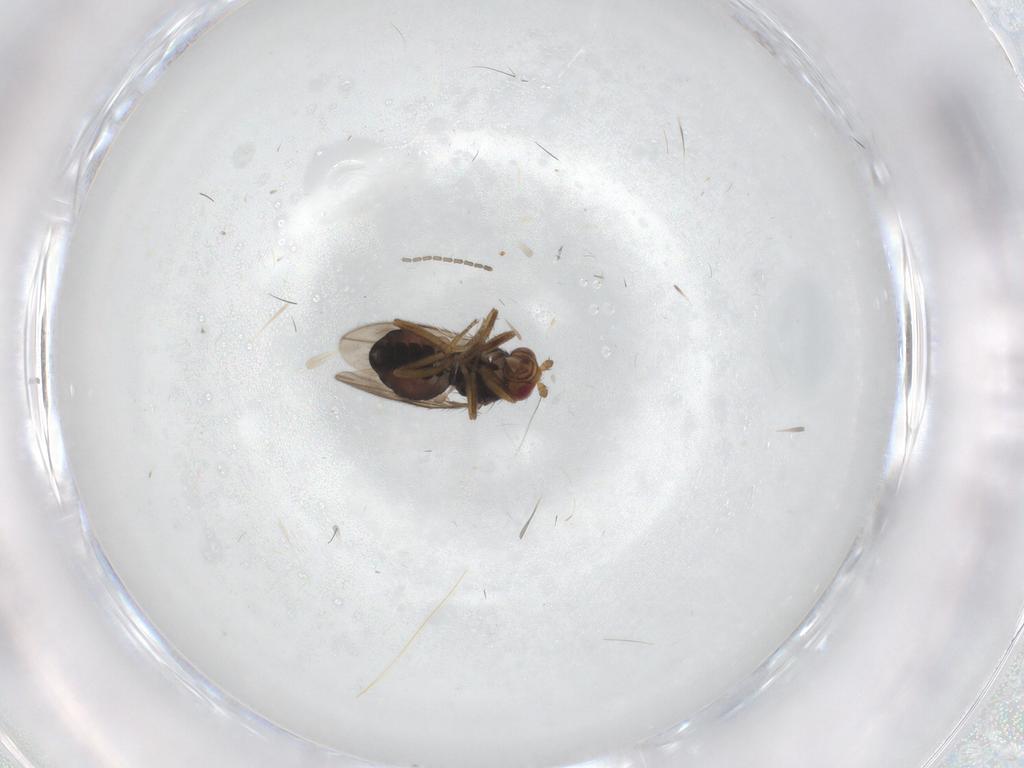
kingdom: Animalia
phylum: Arthropoda
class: Insecta
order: Diptera
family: Sphaeroceridae
